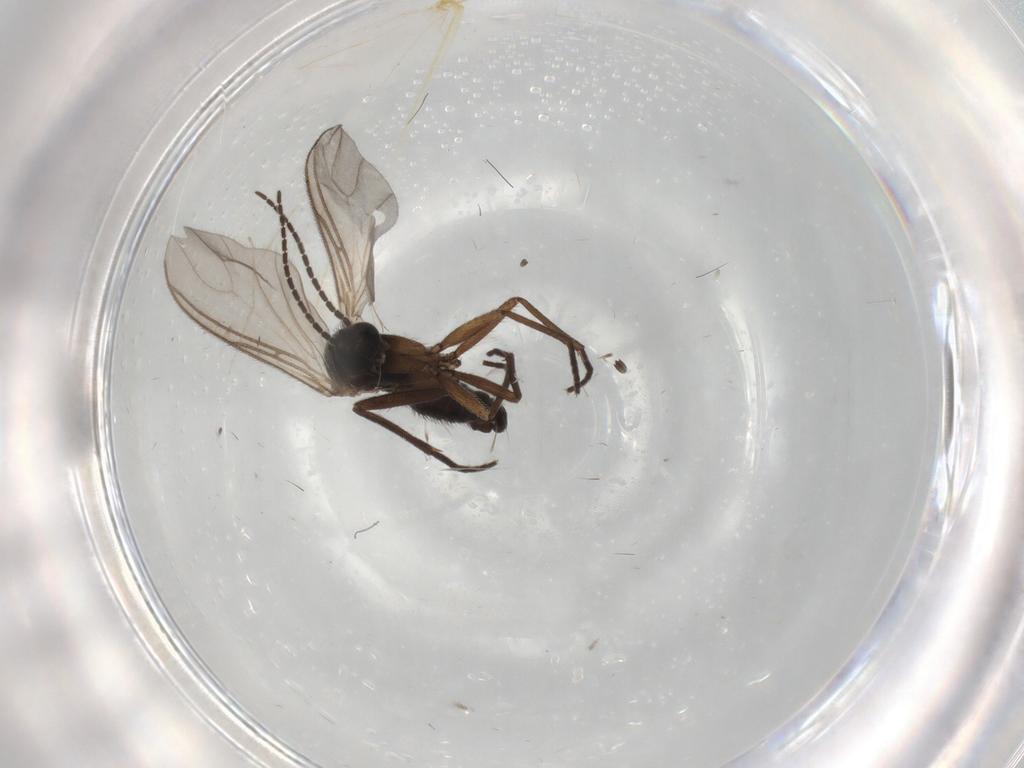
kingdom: Animalia
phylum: Arthropoda
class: Insecta
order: Diptera
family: Sciaridae
